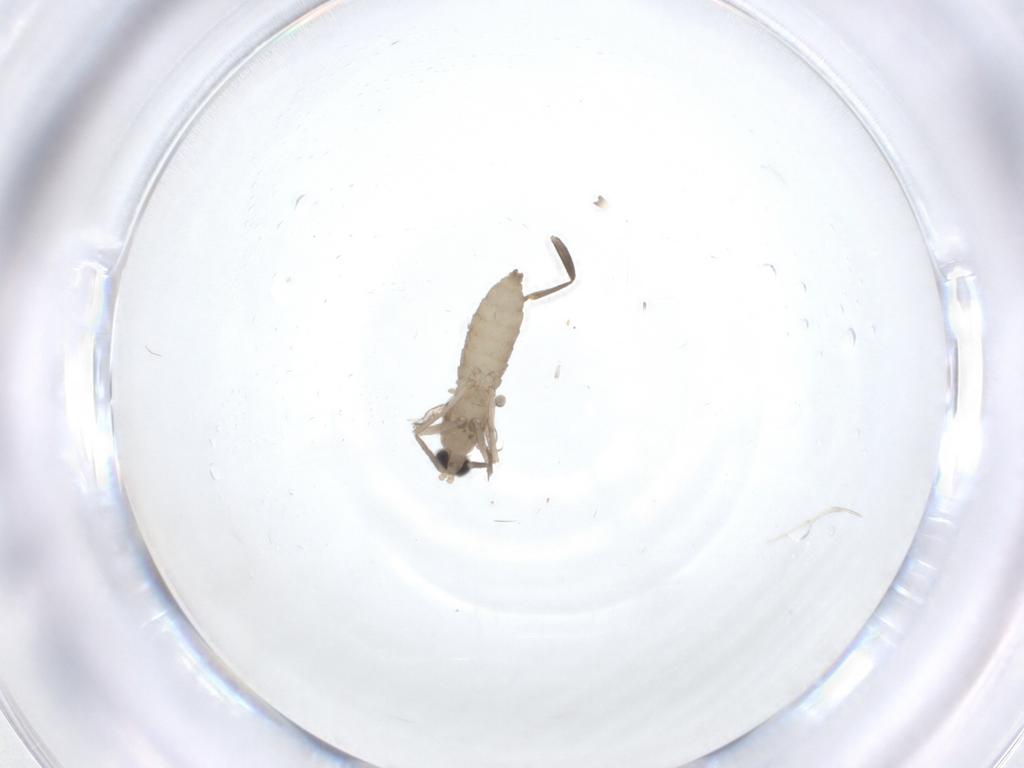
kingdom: Animalia
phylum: Arthropoda
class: Insecta
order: Diptera
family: Cecidomyiidae
